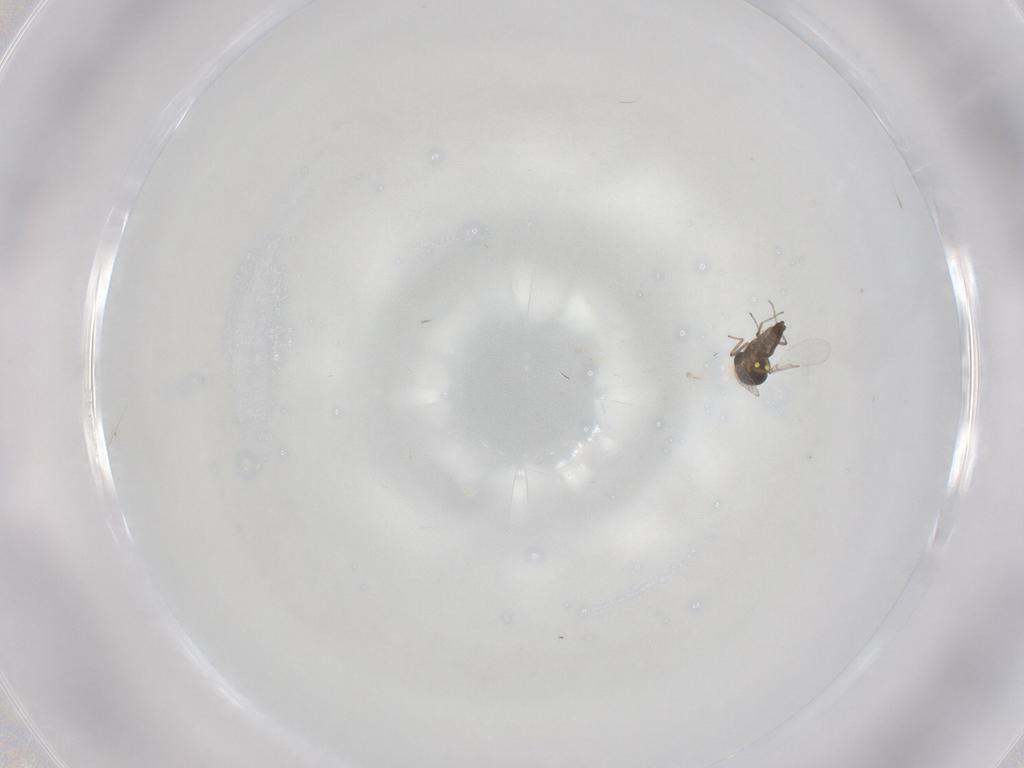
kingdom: Animalia
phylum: Arthropoda
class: Insecta
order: Diptera
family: Ceratopogonidae
